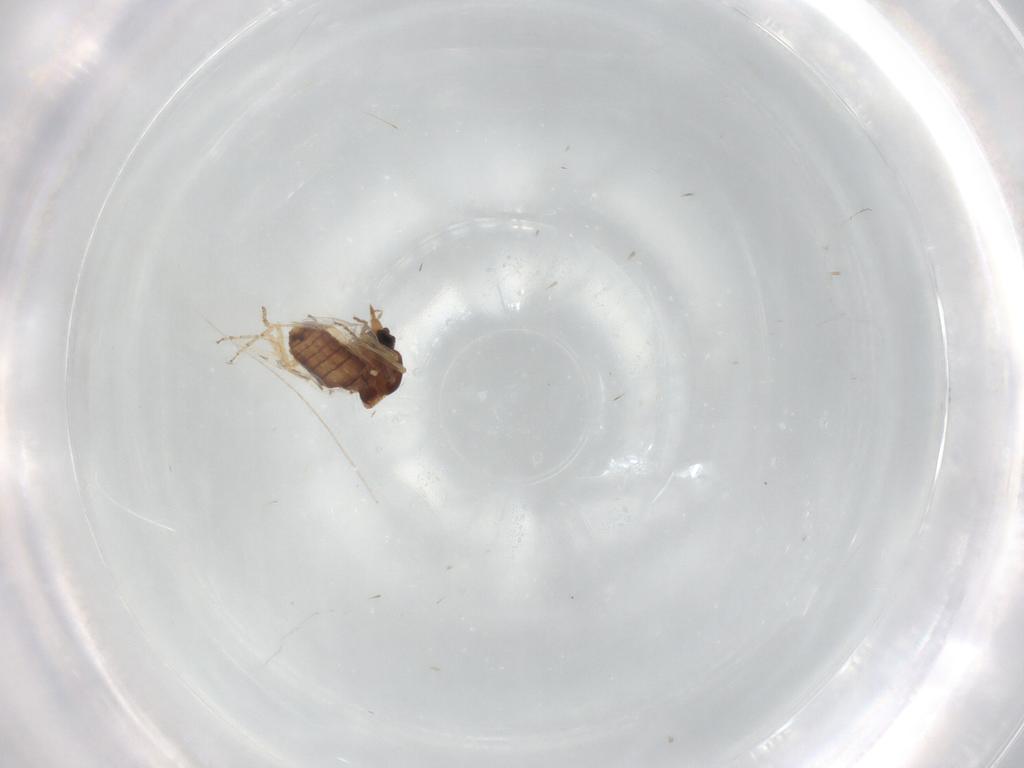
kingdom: Animalia
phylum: Arthropoda
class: Insecta
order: Diptera
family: Ceratopogonidae
